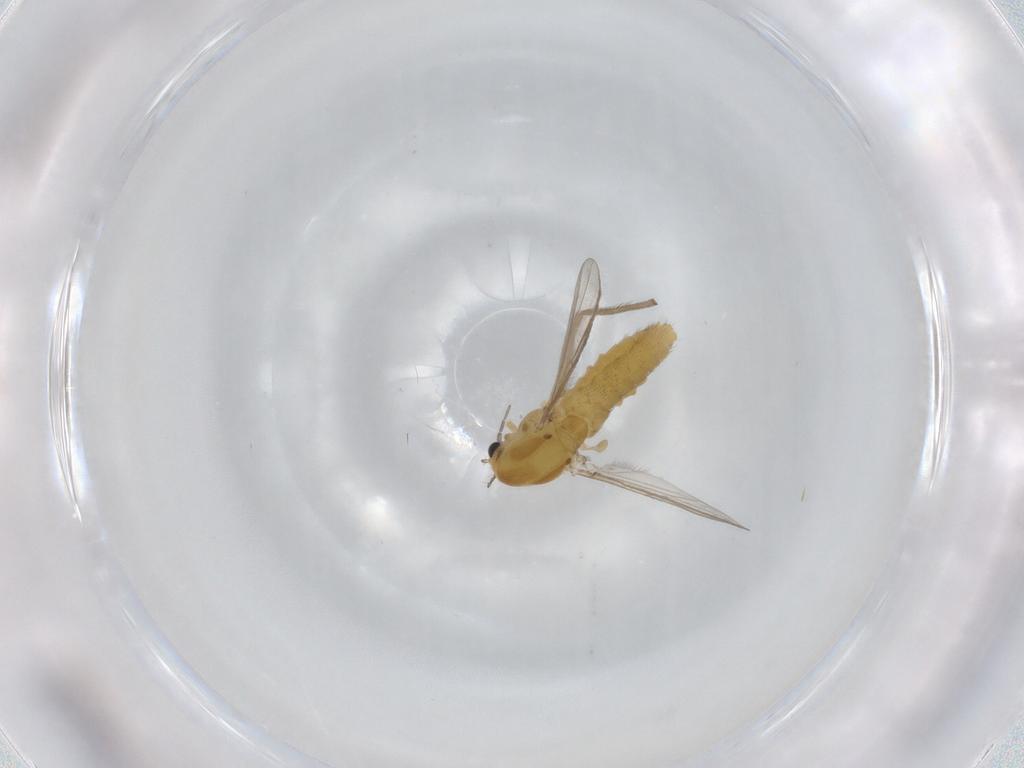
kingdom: Animalia
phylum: Arthropoda
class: Insecta
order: Diptera
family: Chironomidae
